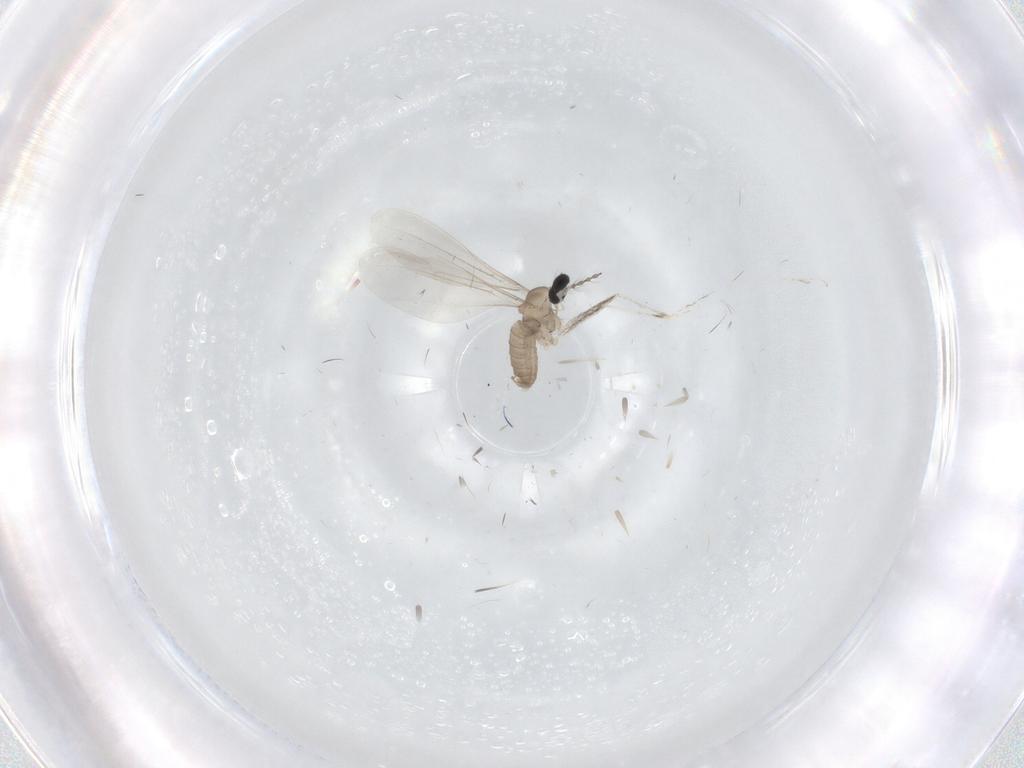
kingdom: Animalia
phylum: Arthropoda
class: Insecta
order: Diptera
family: Cecidomyiidae
